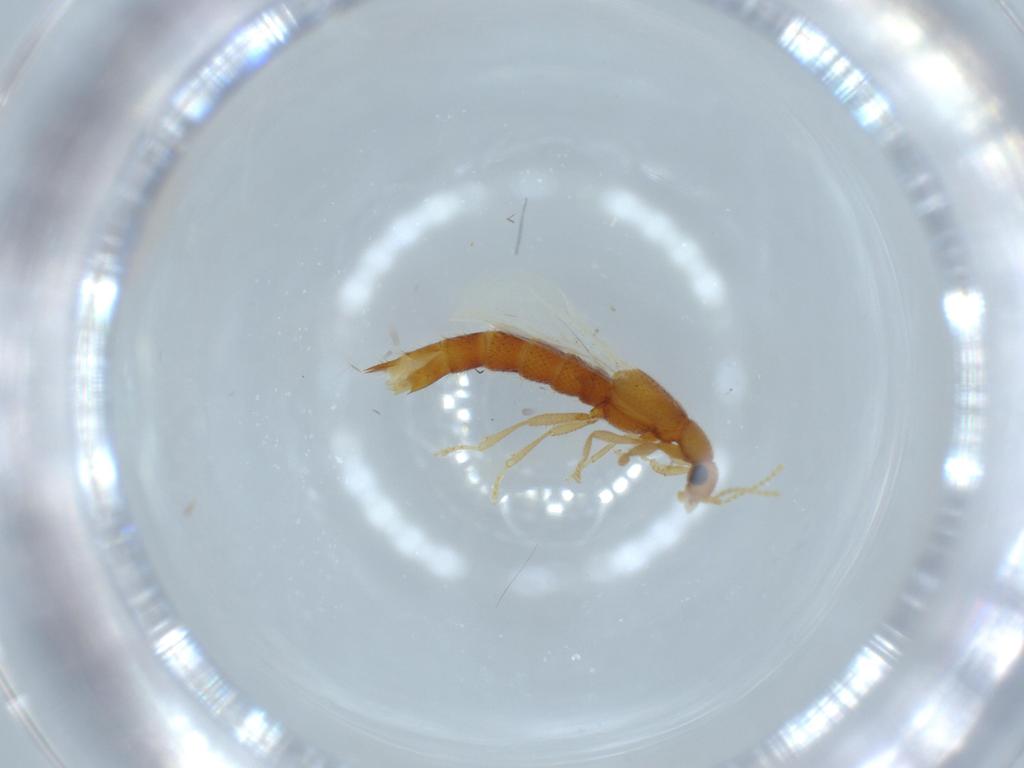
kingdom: Animalia
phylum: Arthropoda
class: Insecta
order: Coleoptera
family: Staphylinidae
